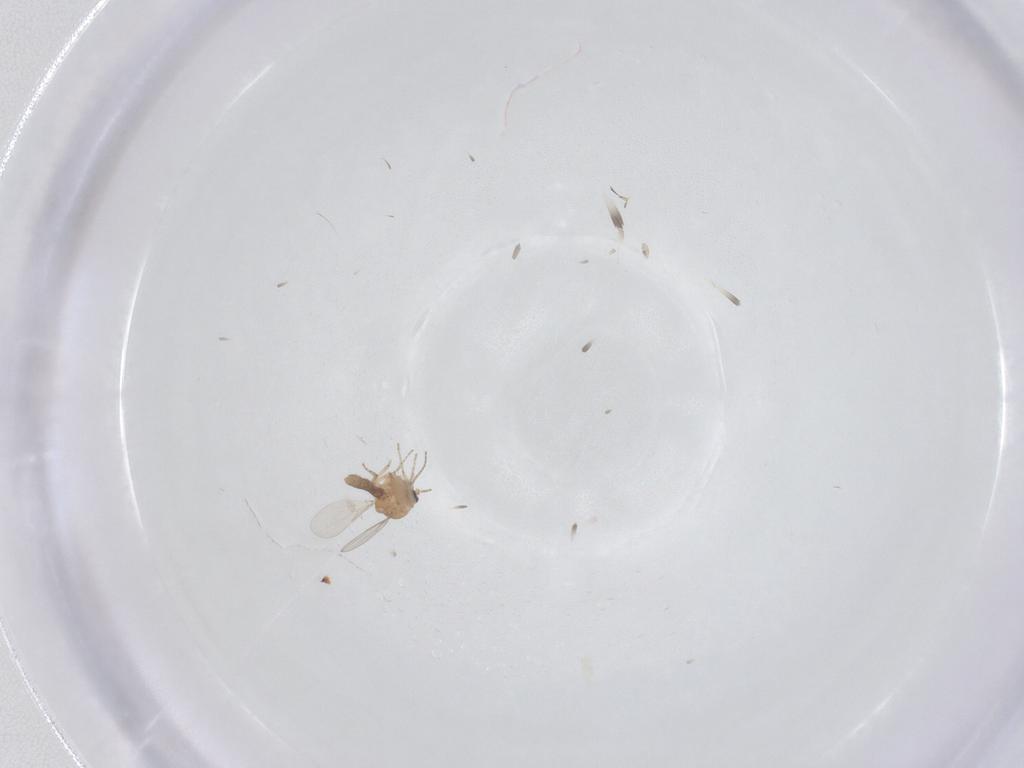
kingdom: Animalia
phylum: Arthropoda
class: Insecta
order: Diptera
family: Ceratopogonidae
